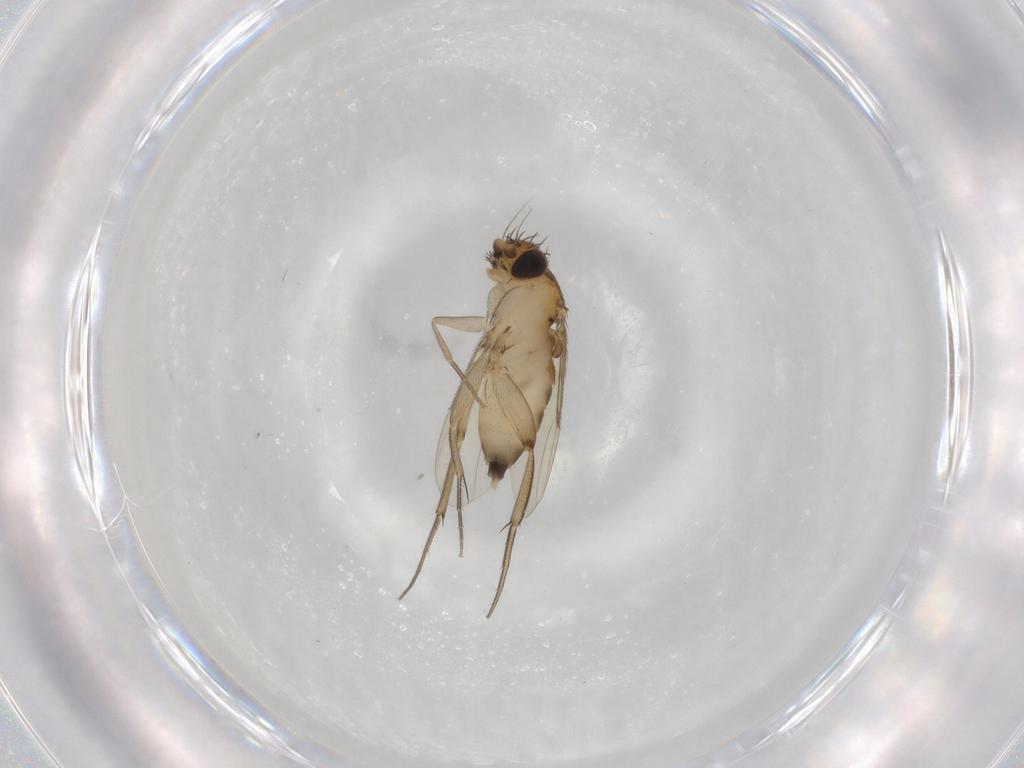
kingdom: Animalia
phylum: Arthropoda
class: Insecta
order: Diptera
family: Phoridae
